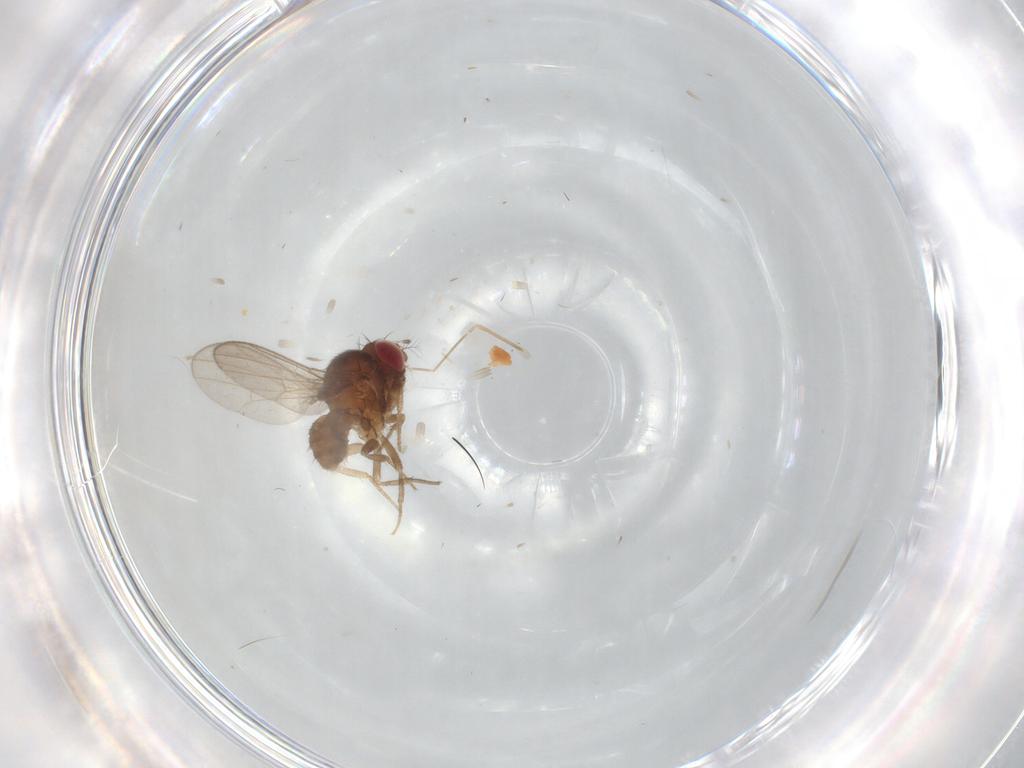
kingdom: Animalia
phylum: Arthropoda
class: Insecta
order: Diptera
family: Drosophilidae
